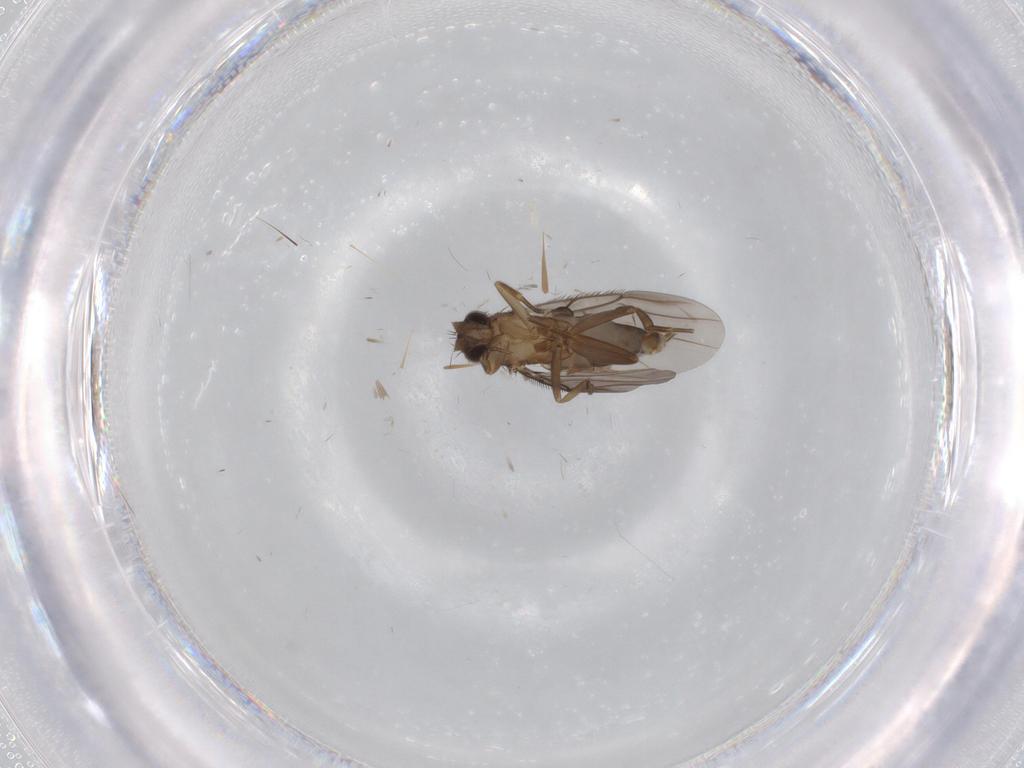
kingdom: Animalia
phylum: Arthropoda
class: Insecta
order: Diptera
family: Phoridae
